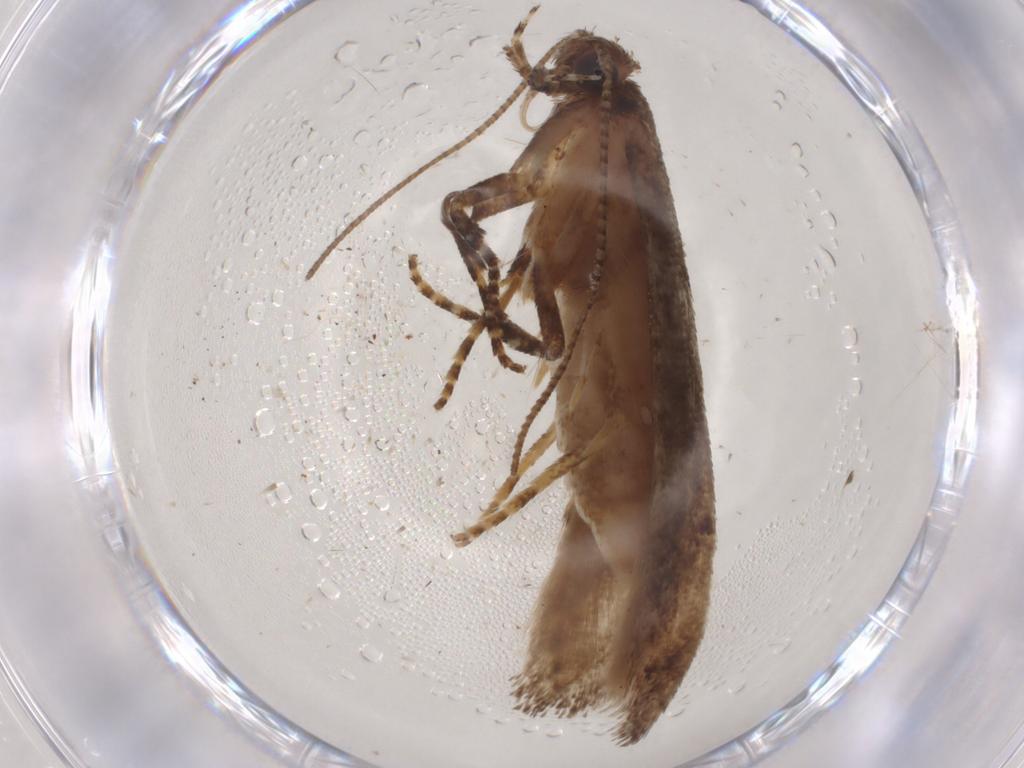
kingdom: Animalia
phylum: Arthropoda
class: Insecta
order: Lepidoptera
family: Gelechiidae
